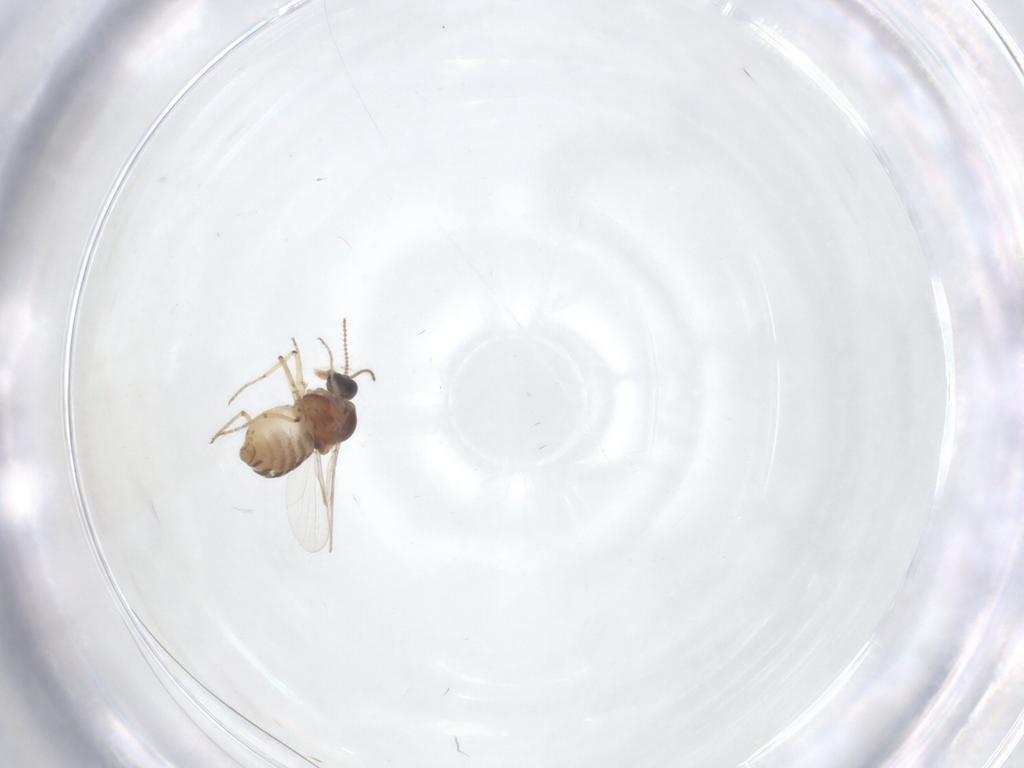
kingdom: Animalia
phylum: Arthropoda
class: Insecta
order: Diptera
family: Ceratopogonidae
